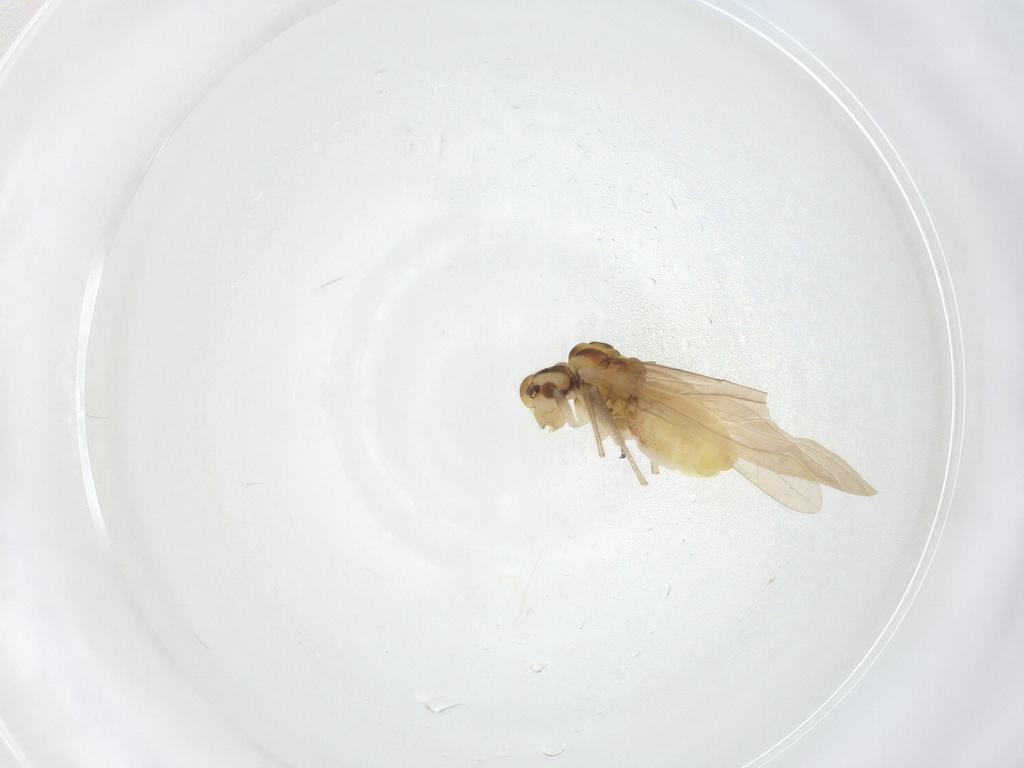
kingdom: Animalia
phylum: Arthropoda
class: Insecta
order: Psocodea
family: Caeciliusidae
